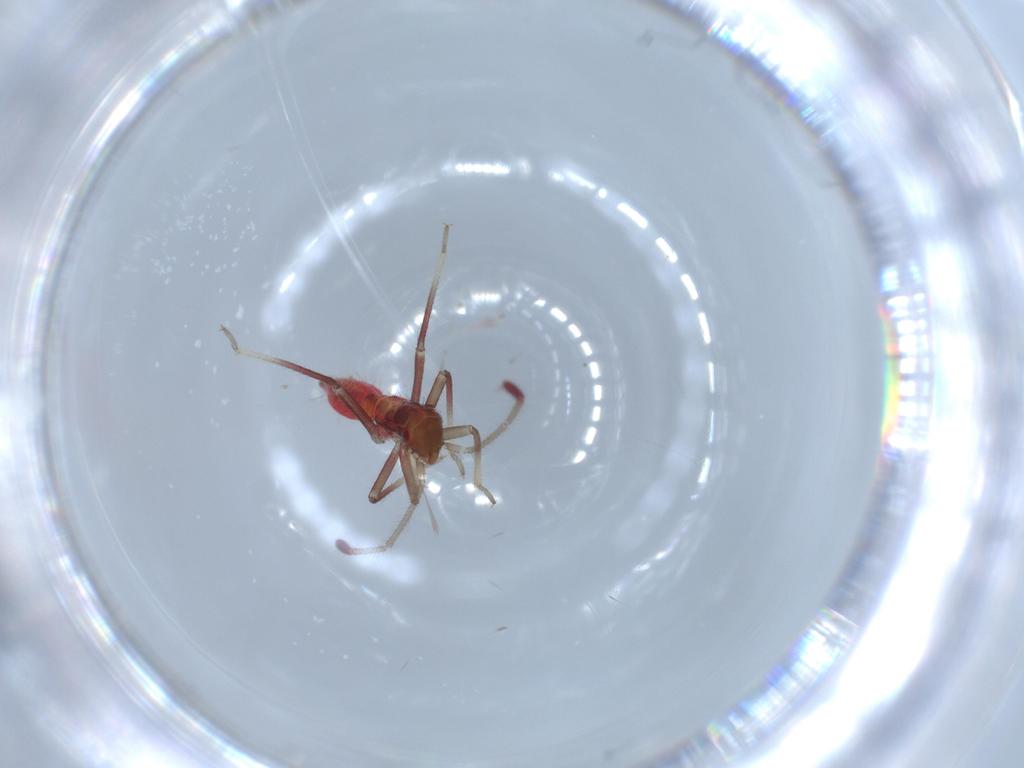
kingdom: Animalia
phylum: Arthropoda
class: Insecta
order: Hemiptera
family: Miridae
